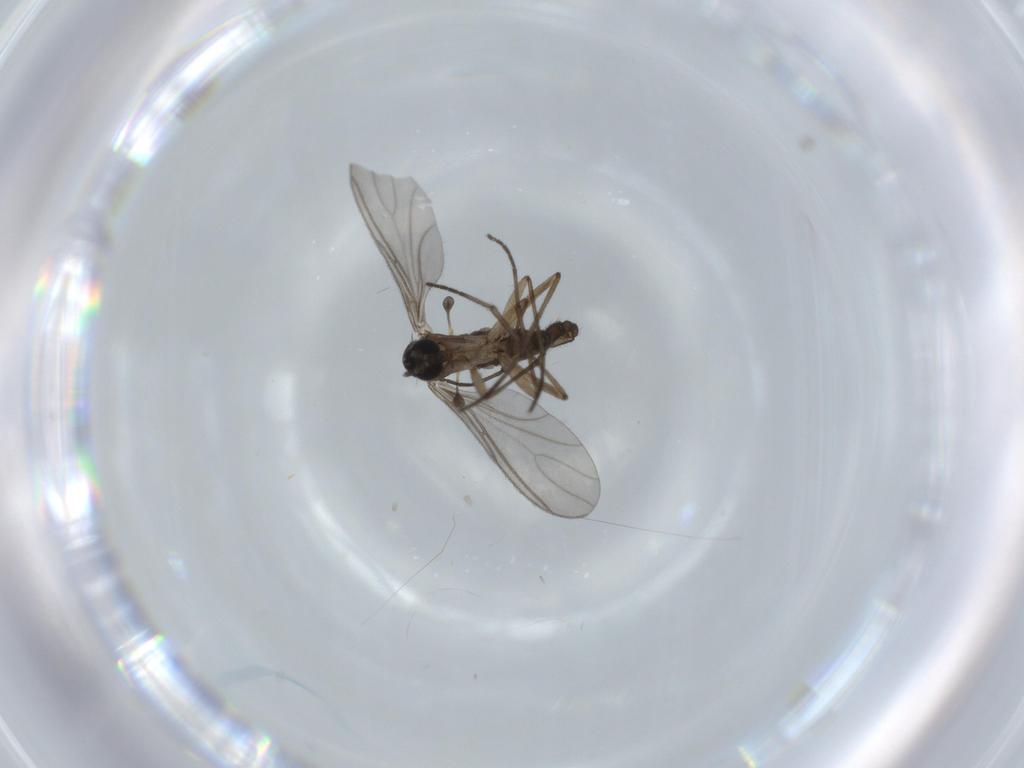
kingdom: Animalia
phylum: Arthropoda
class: Insecta
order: Diptera
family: Sciaridae
